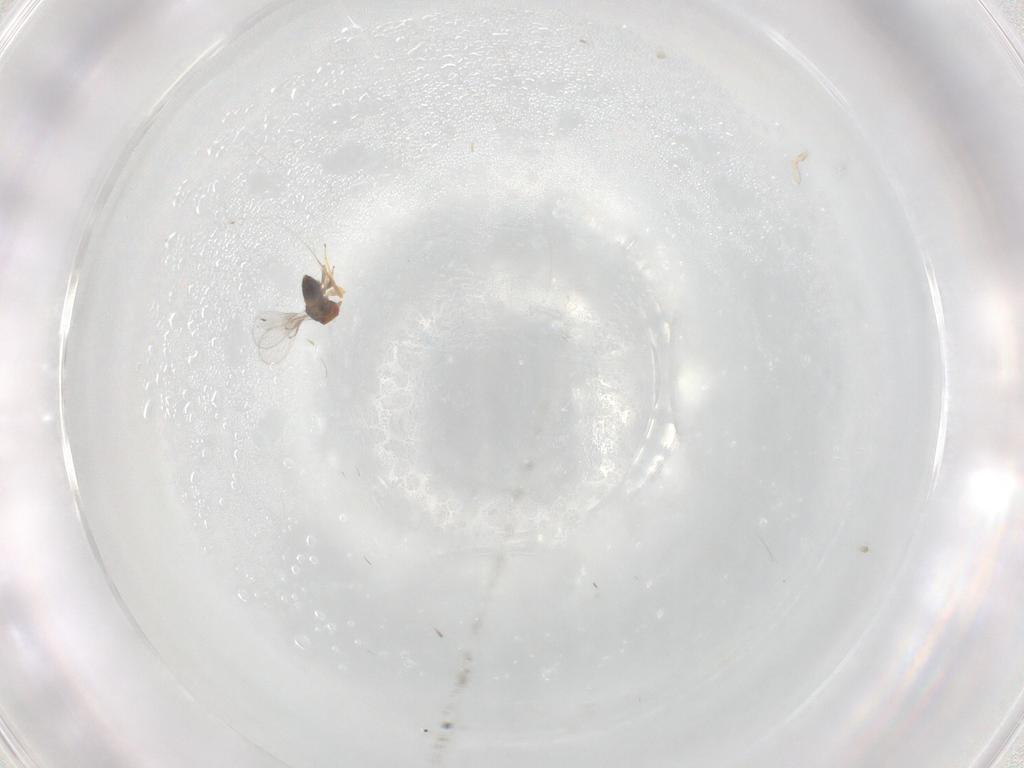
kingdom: Animalia
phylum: Arthropoda
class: Insecta
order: Hymenoptera
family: Trichogrammatidae
